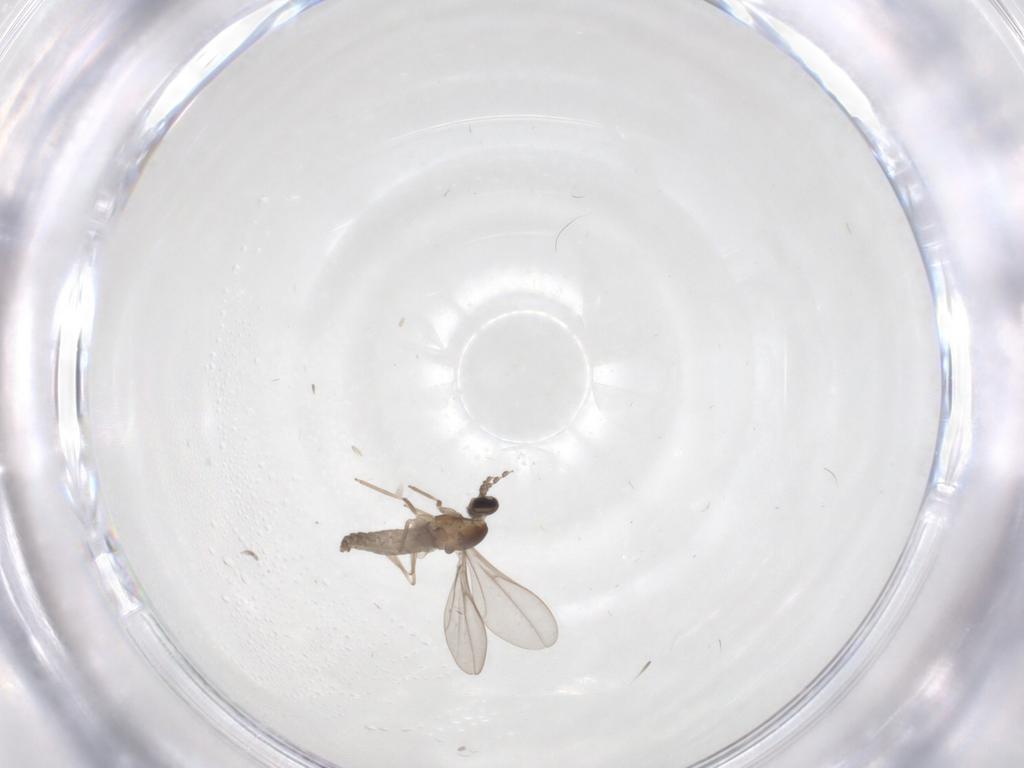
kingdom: Animalia
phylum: Arthropoda
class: Insecta
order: Diptera
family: Cecidomyiidae
